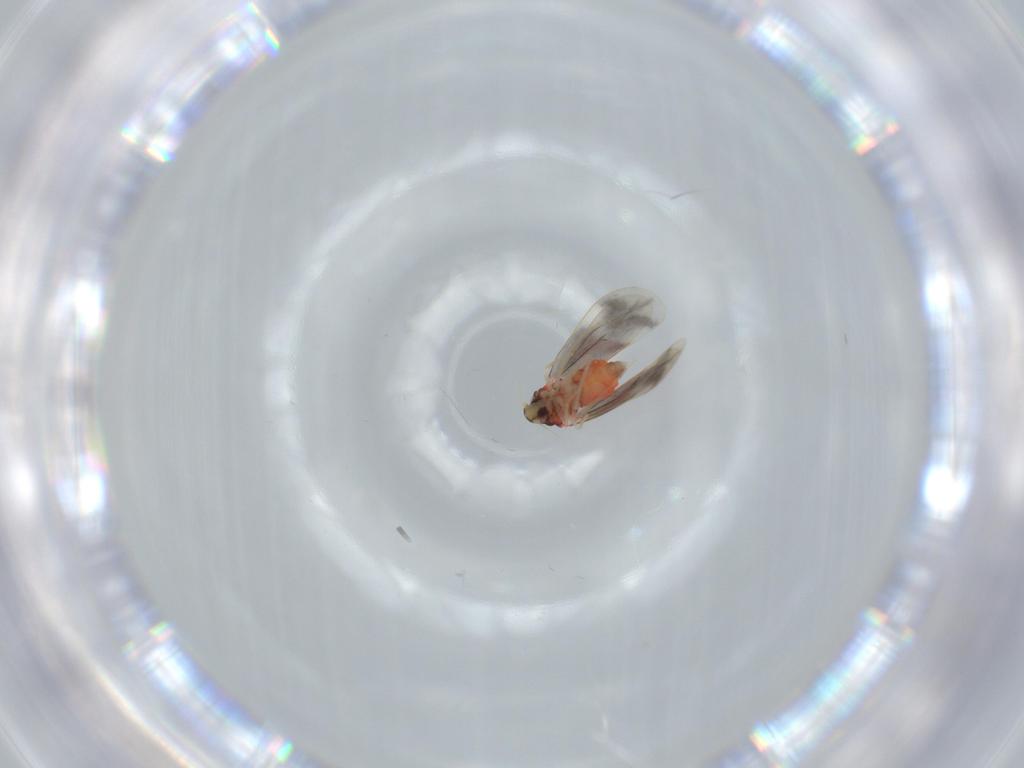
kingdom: Animalia
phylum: Arthropoda
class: Insecta
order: Hemiptera
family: Aleyrodidae
